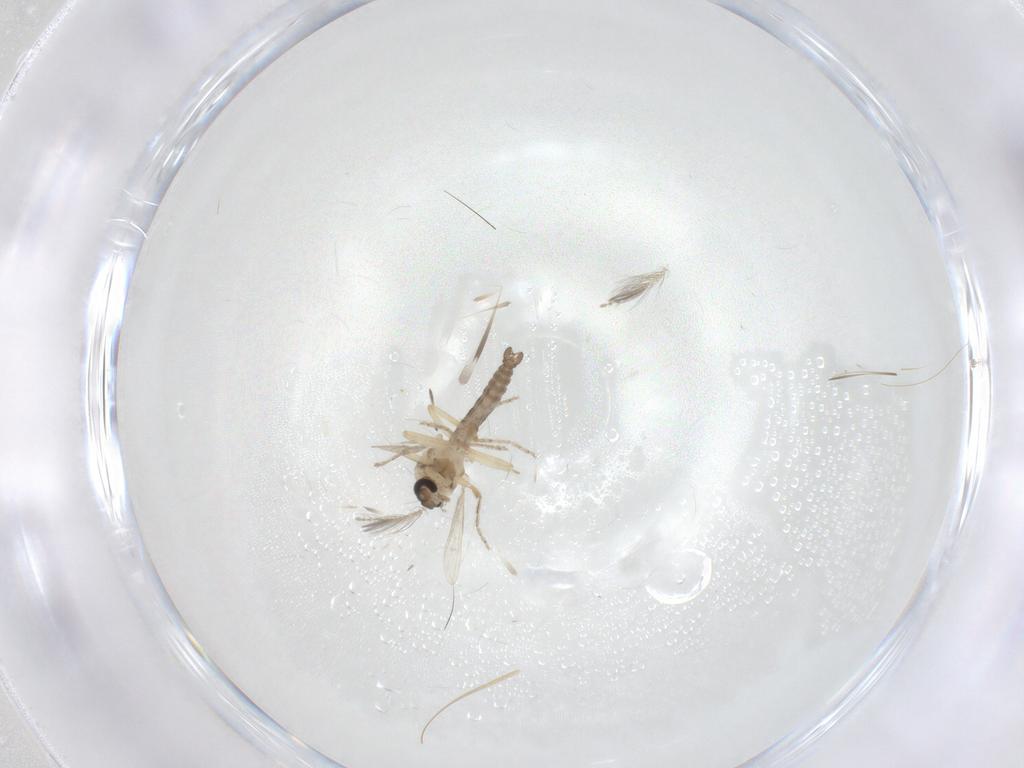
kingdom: Animalia
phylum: Arthropoda
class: Insecta
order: Diptera
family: Ceratopogonidae
